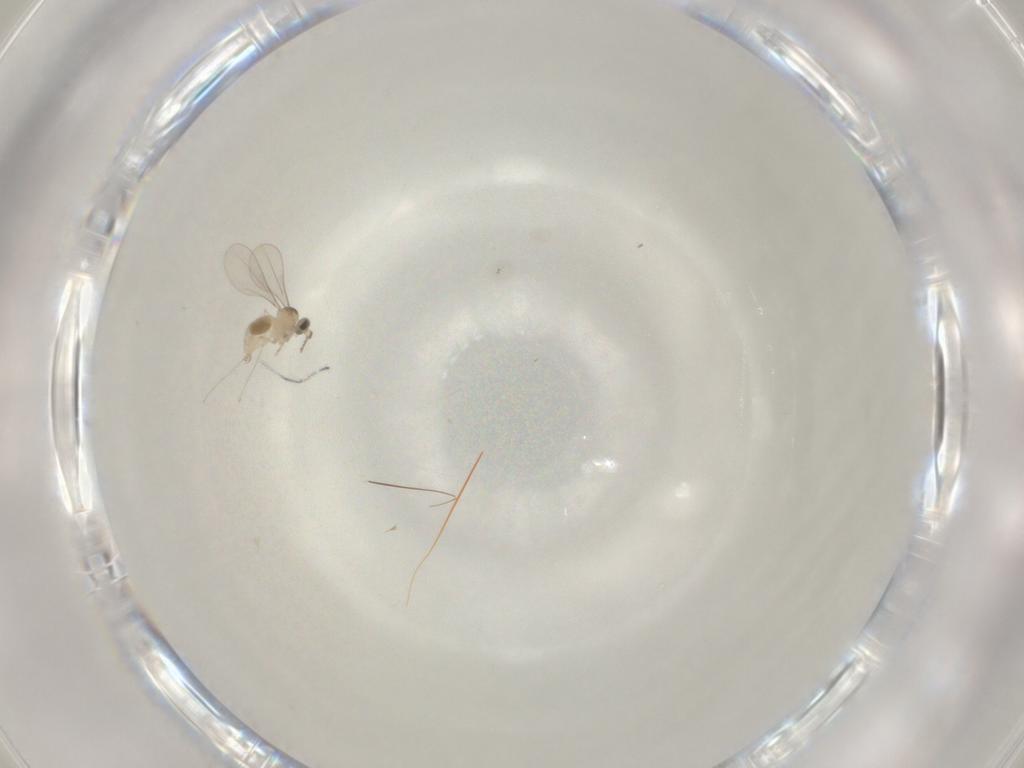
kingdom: Animalia
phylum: Arthropoda
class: Insecta
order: Diptera
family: Cecidomyiidae
